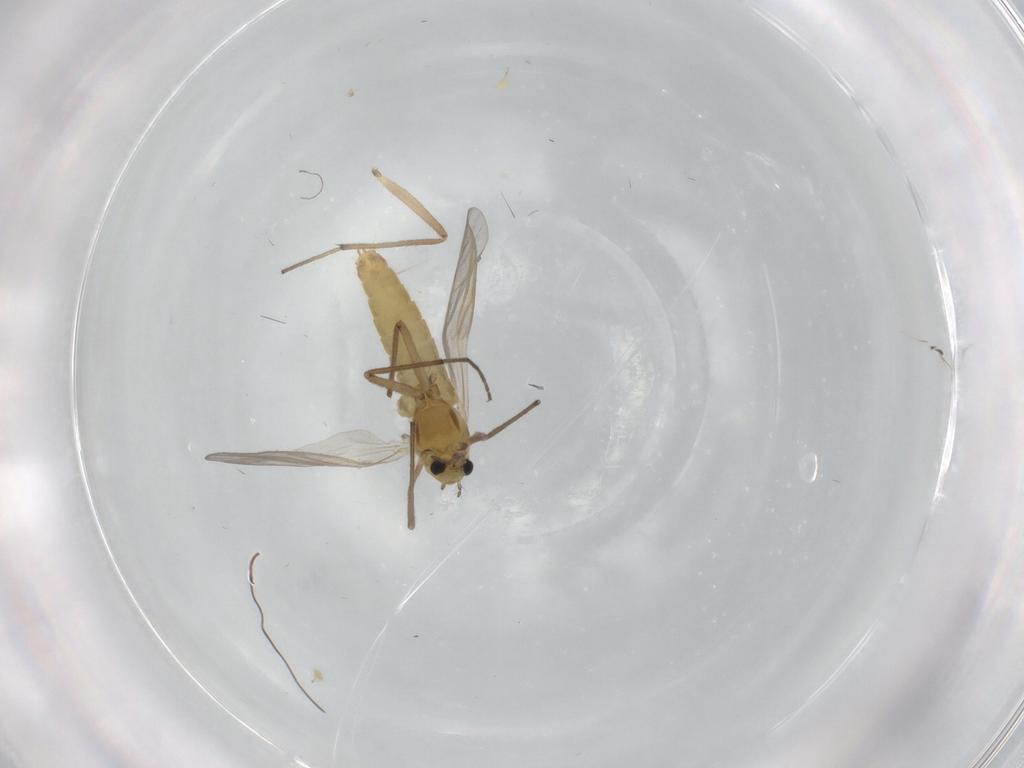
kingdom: Animalia
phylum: Arthropoda
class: Insecta
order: Diptera
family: Chironomidae
